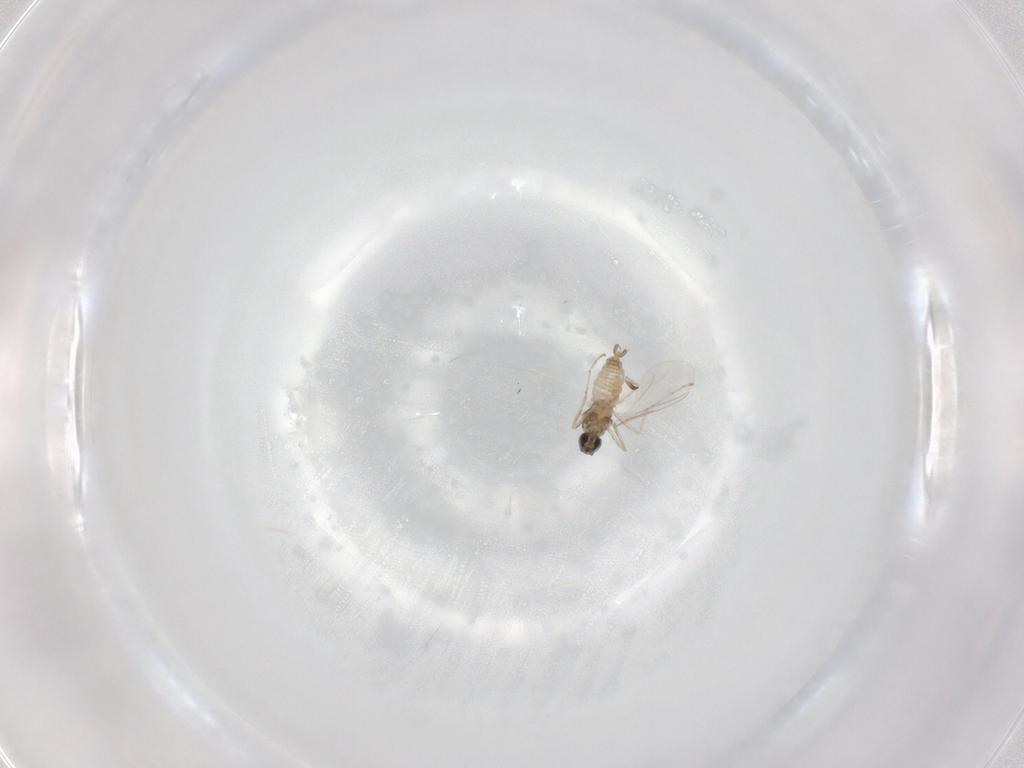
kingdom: Animalia
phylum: Arthropoda
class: Insecta
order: Diptera
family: Cecidomyiidae
